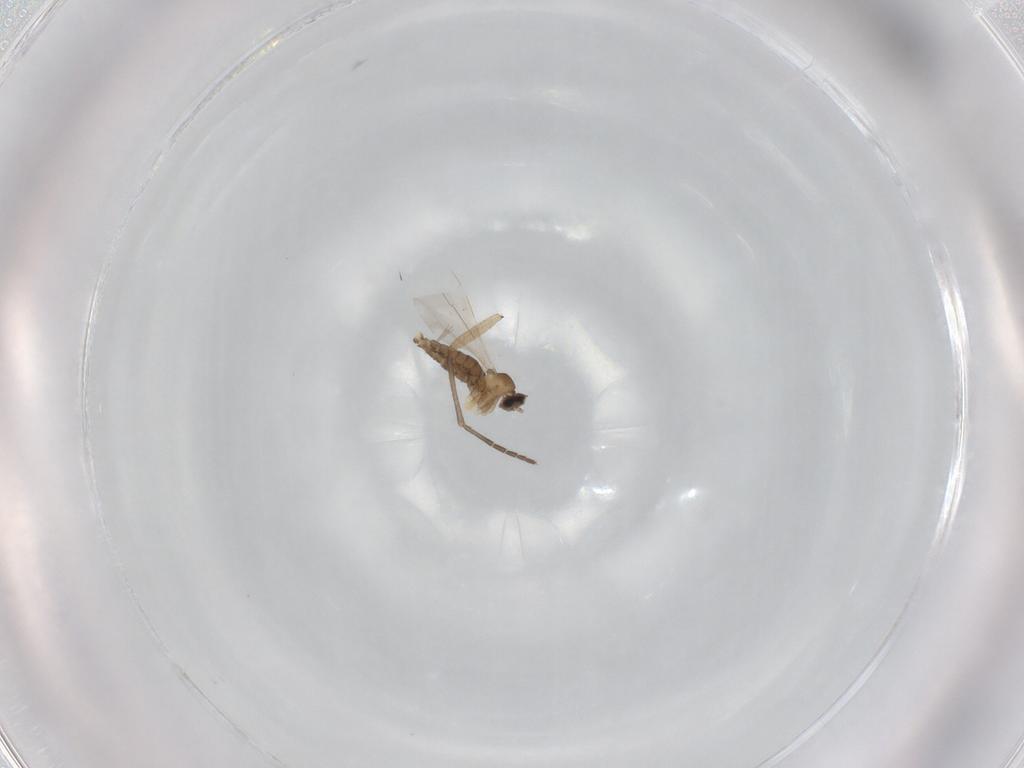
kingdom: Animalia
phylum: Arthropoda
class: Insecta
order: Diptera
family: Cecidomyiidae
